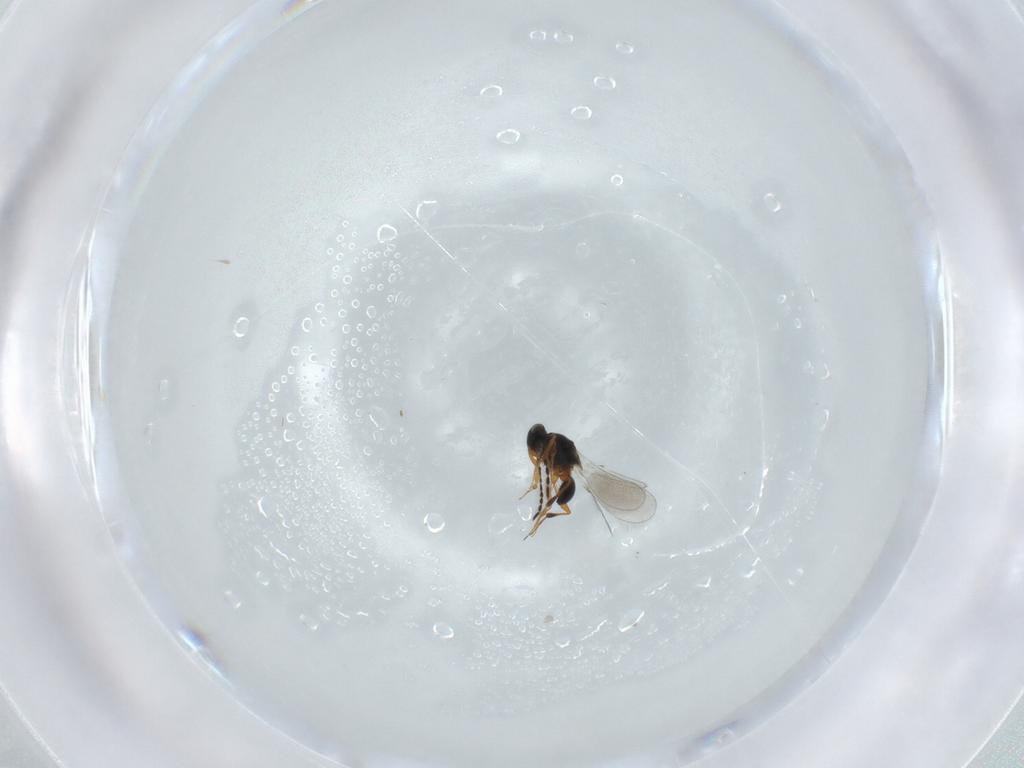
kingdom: Animalia
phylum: Arthropoda
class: Insecta
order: Hymenoptera
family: Platygastridae
